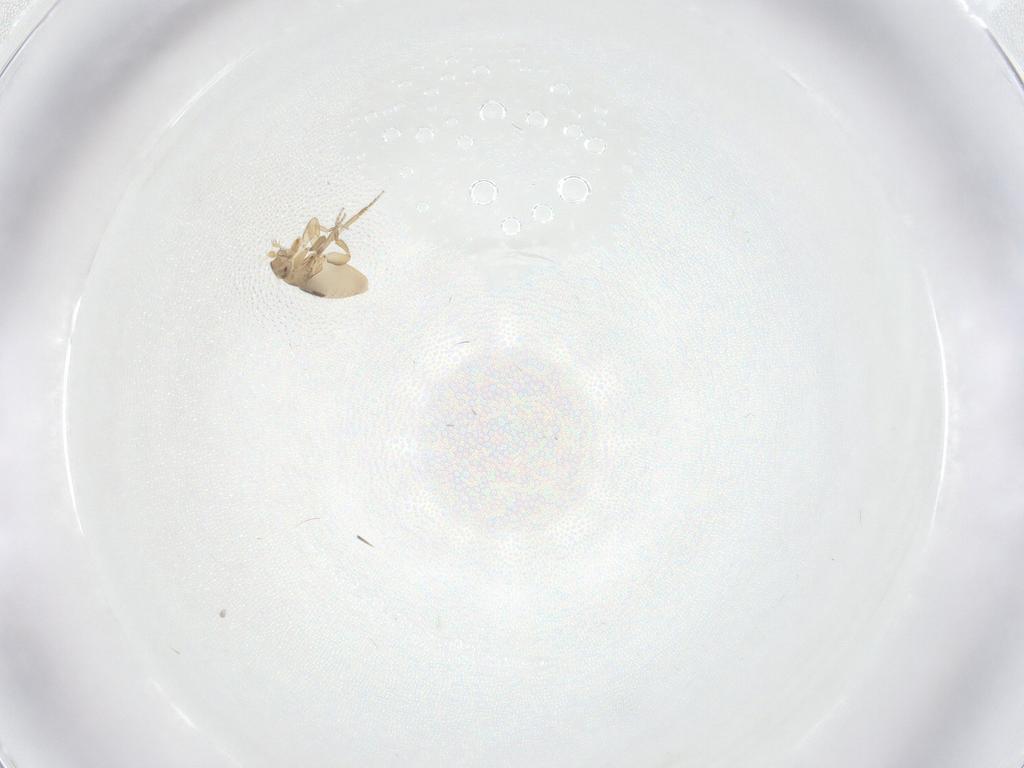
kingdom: Animalia
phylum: Arthropoda
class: Insecta
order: Diptera
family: Phoridae
